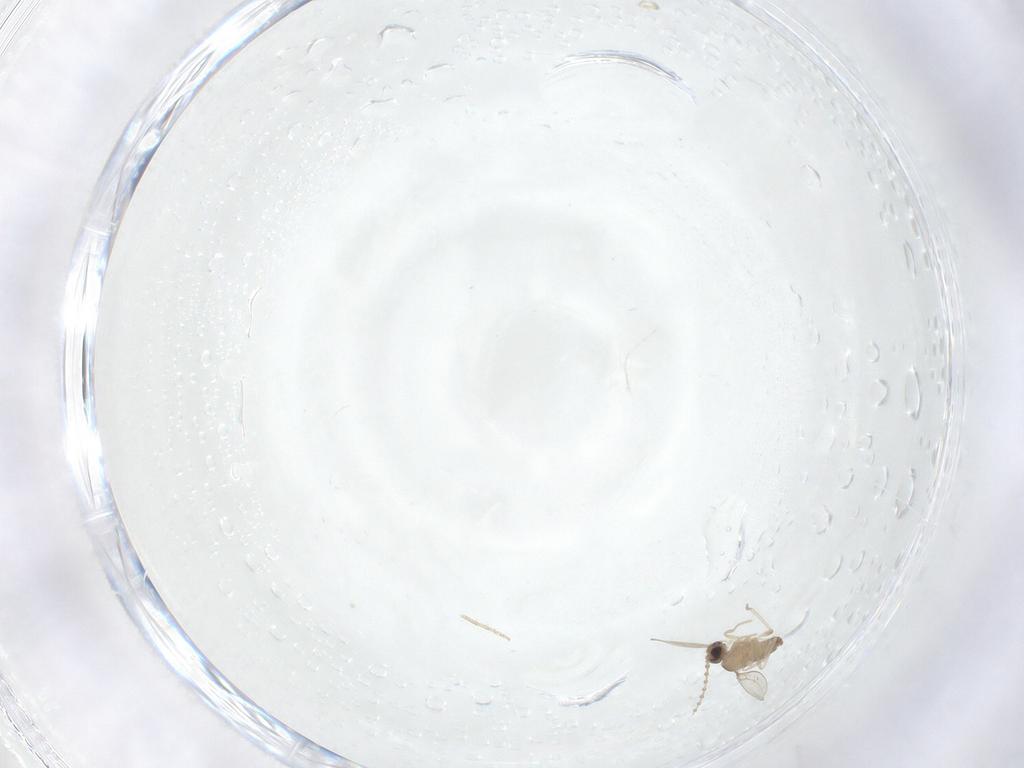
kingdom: Animalia
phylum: Arthropoda
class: Insecta
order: Diptera
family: Cecidomyiidae
